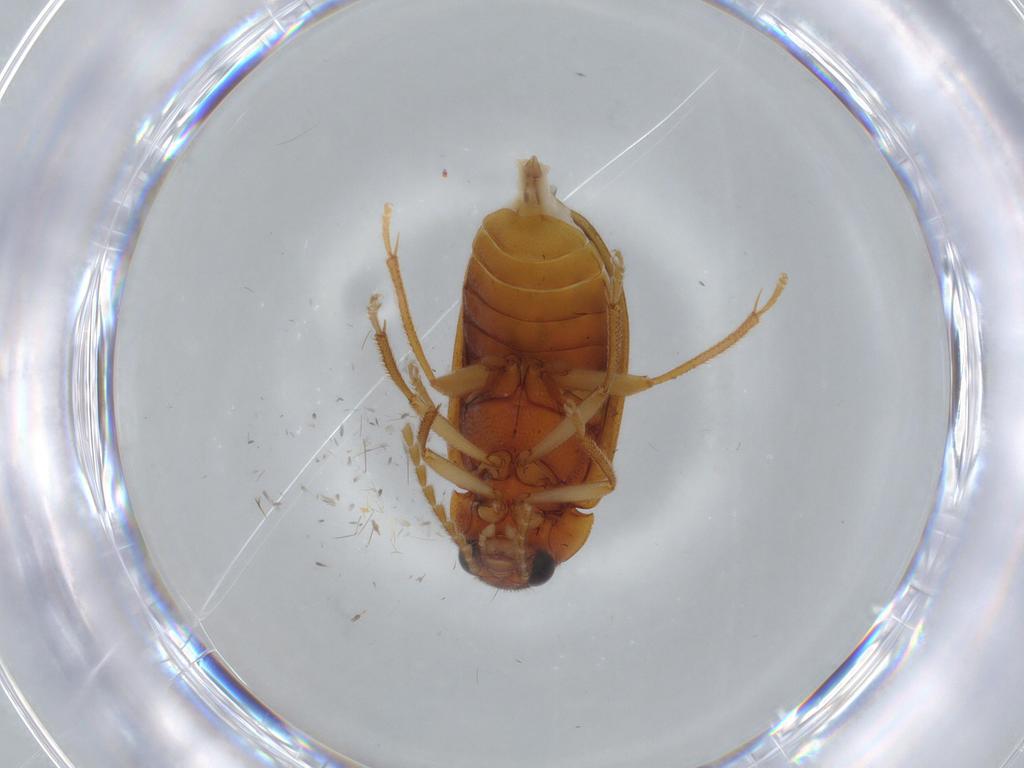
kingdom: Animalia
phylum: Arthropoda
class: Insecta
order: Coleoptera
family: Ptilodactylidae
